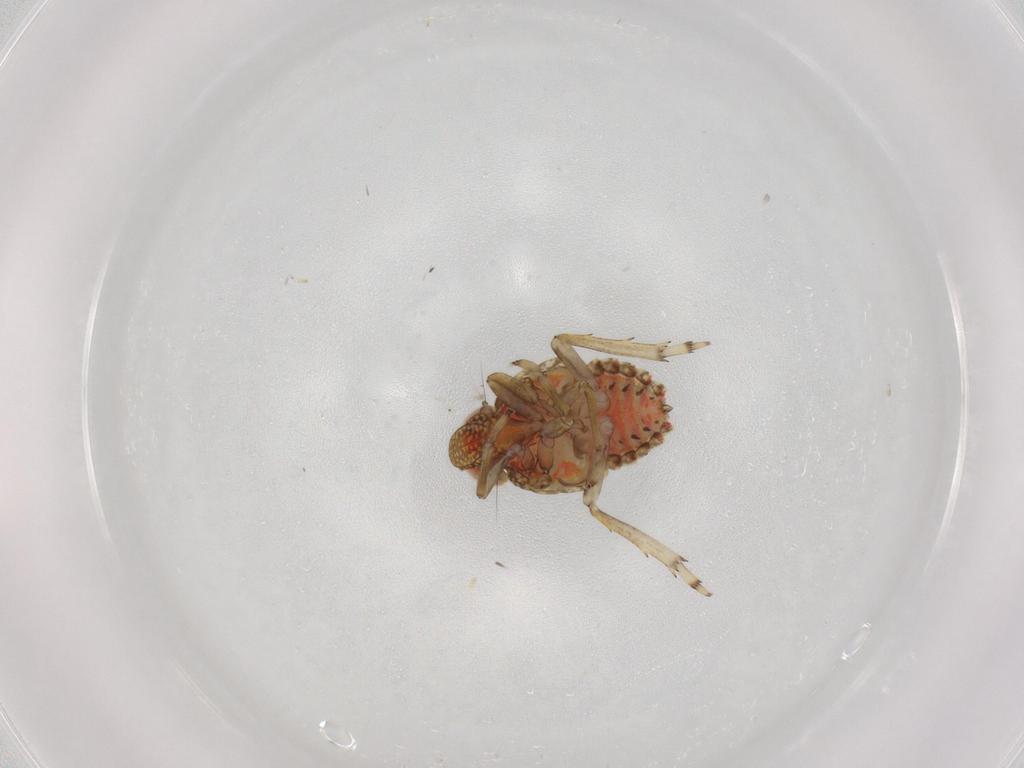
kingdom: Animalia
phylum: Arthropoda
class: Insecta
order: Hemiptera
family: Issidae
